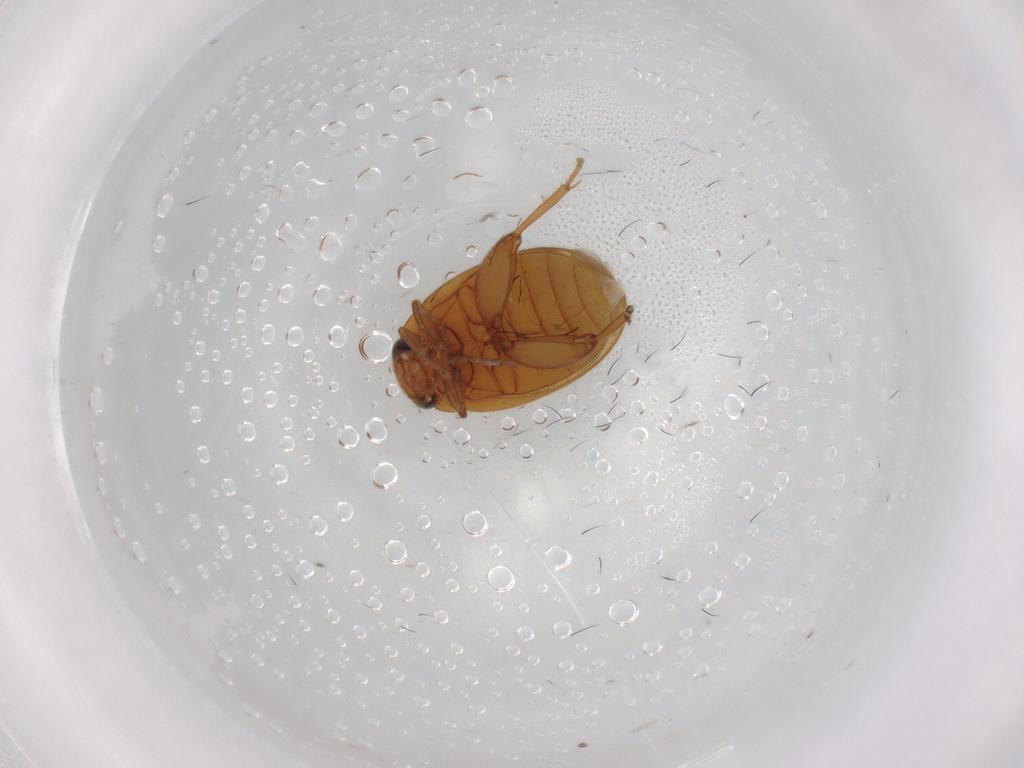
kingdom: Animalia
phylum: Arthropoda
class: Insecta
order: Coleoptera
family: Scirtidae
